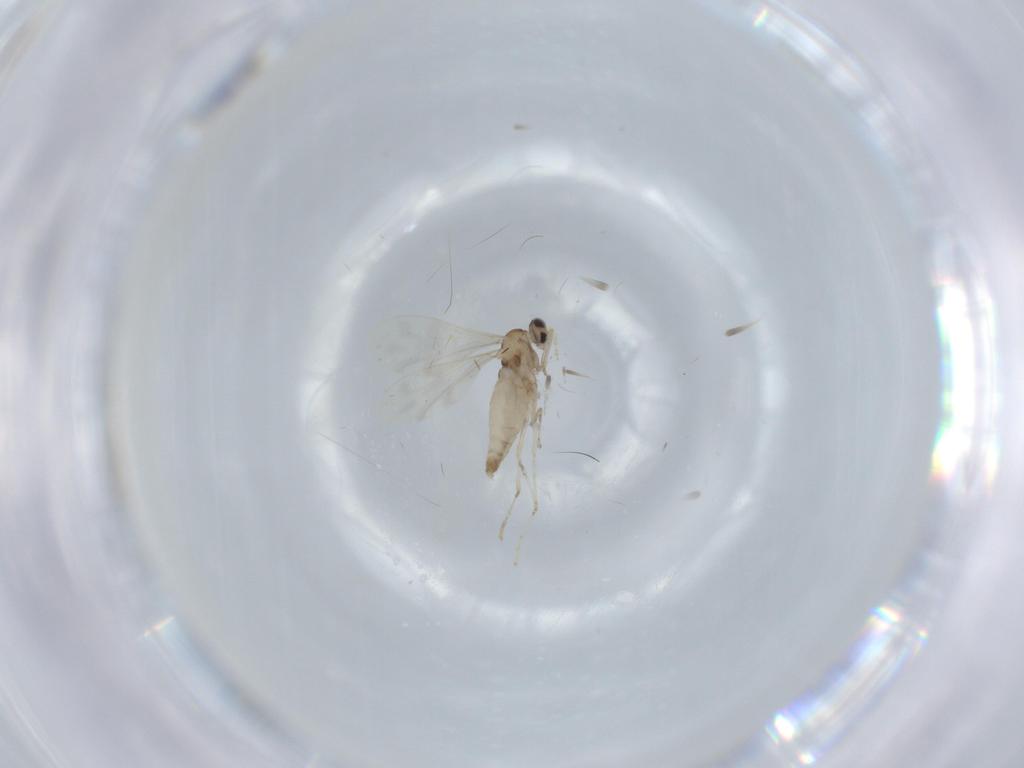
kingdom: Animalia
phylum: Arthropoda
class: Insecta
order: Diptera
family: Cecidomyiidae
